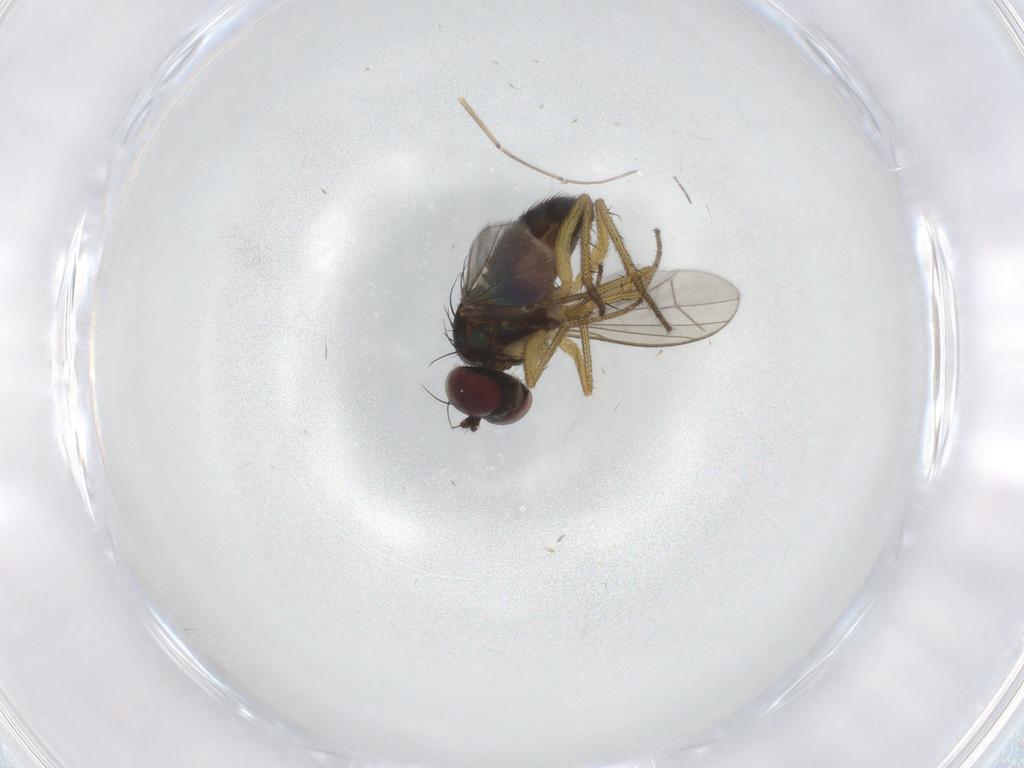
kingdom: Animalia
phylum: Arthropoda
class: Insecta
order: Diptera
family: Dolichopodidae
